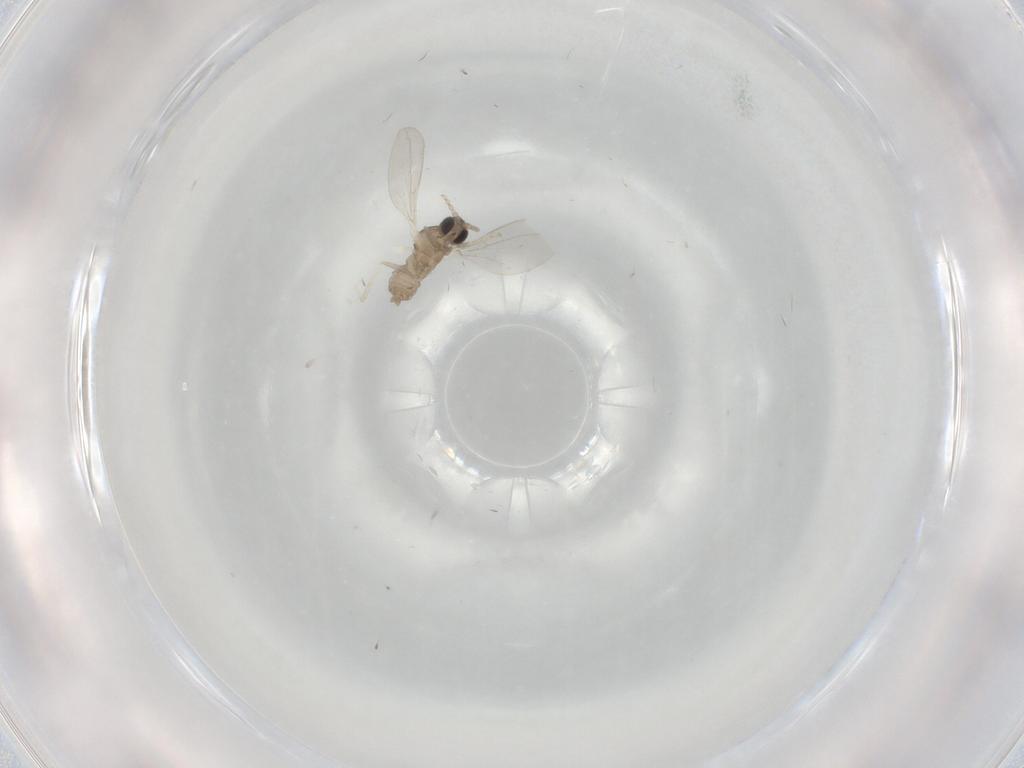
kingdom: Animalia
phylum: Arthropoda
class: Insecta
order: Diptera
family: Cecidomyiidae
